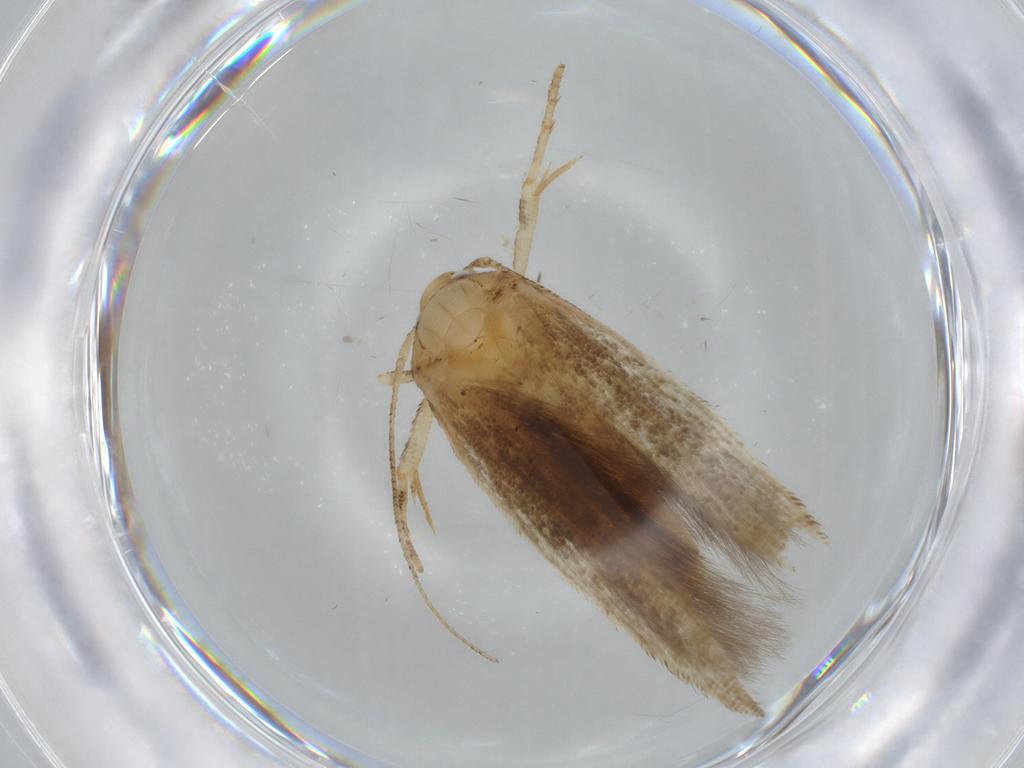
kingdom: Animalia
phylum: Arthropoda
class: Insecta
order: Lepidoptera
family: Cosmopterigidae
